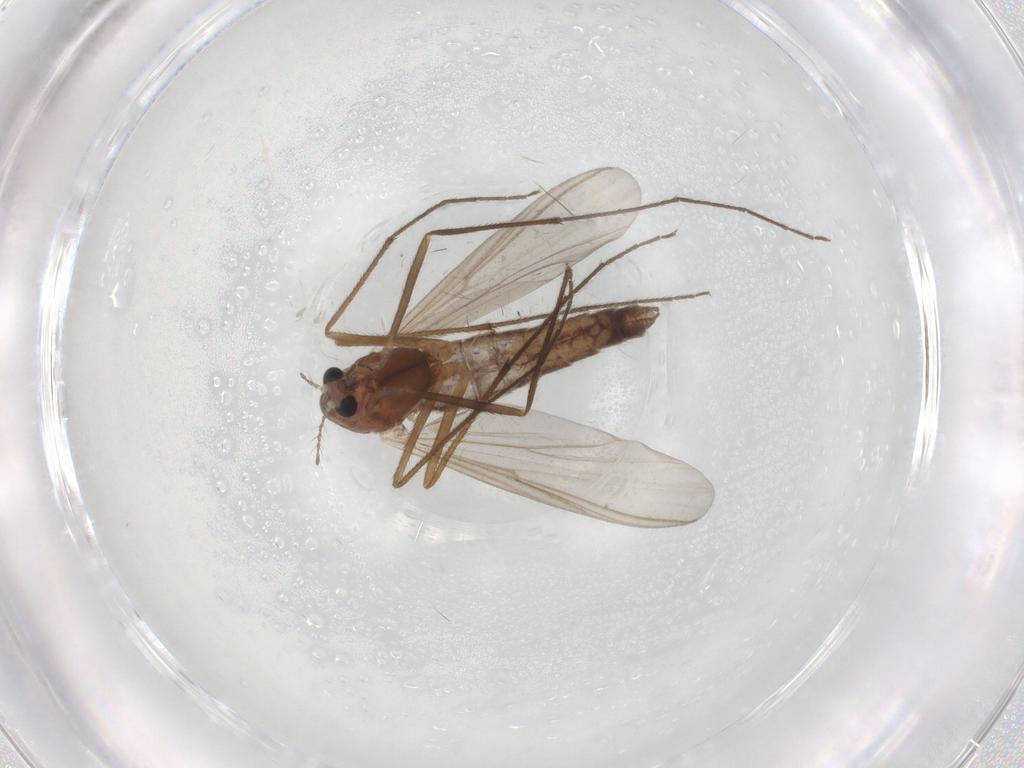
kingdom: Animalia
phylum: Arthropoda
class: Insecta
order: Diptera
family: Chironomidae
